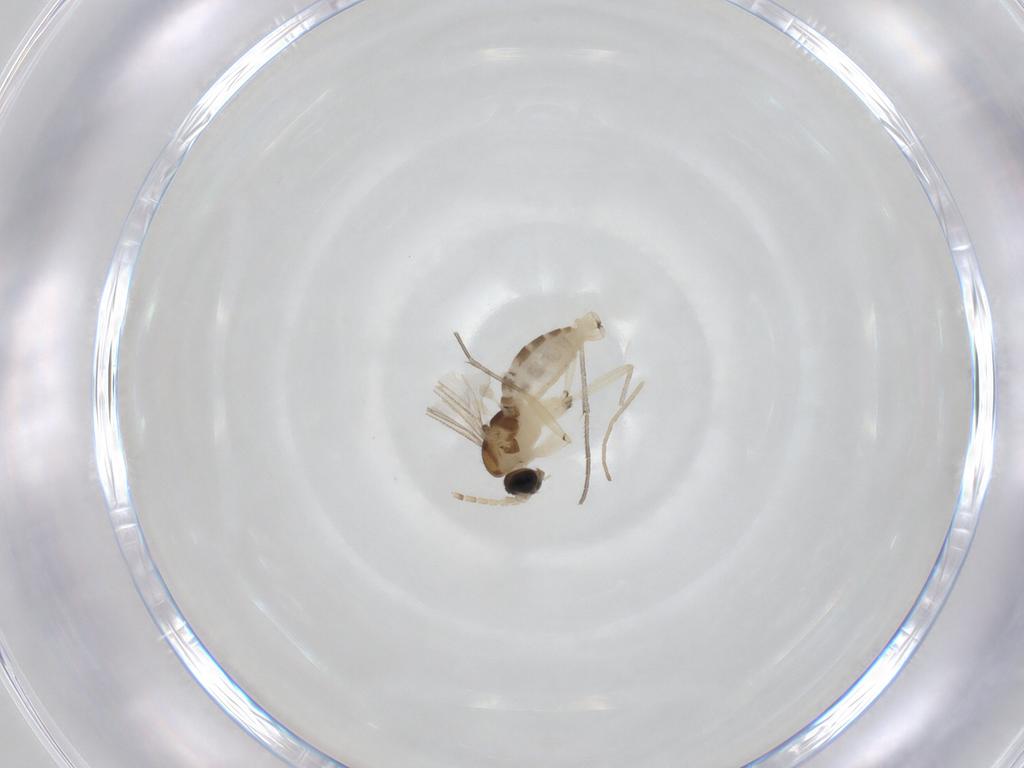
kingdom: Animalia
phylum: Arthropoda
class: Insecta
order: Diptera
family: Sciaridae
